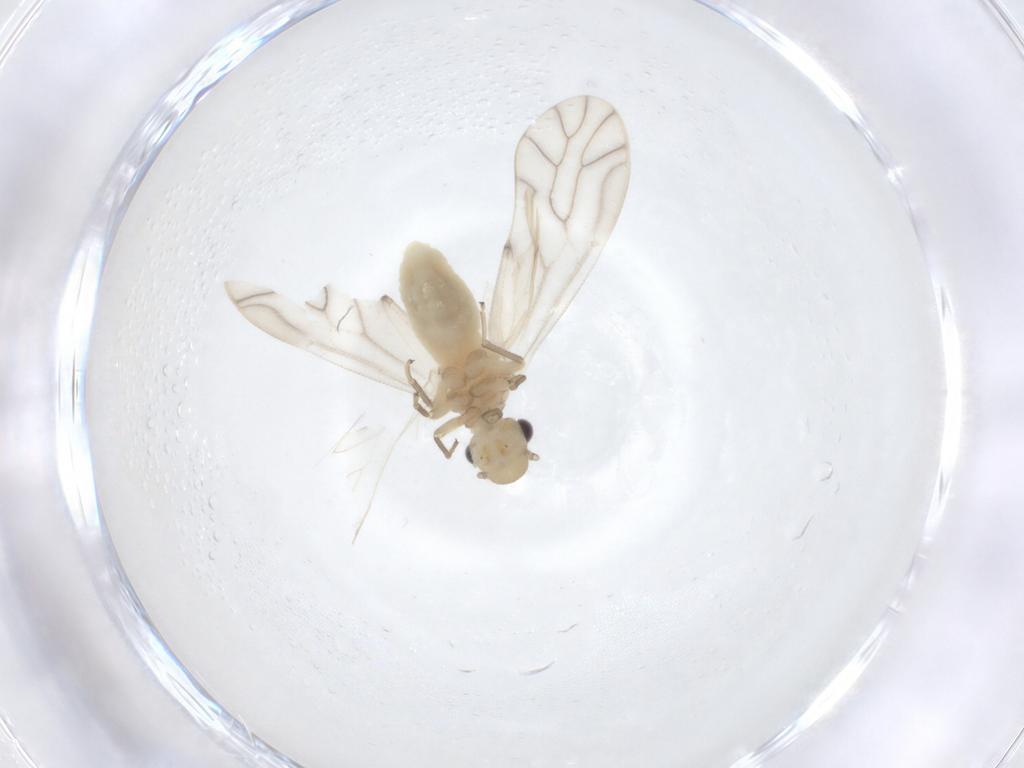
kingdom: Animalia
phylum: Arthropoda
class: Insecta
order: Psocodea
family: Caeciliusidae
